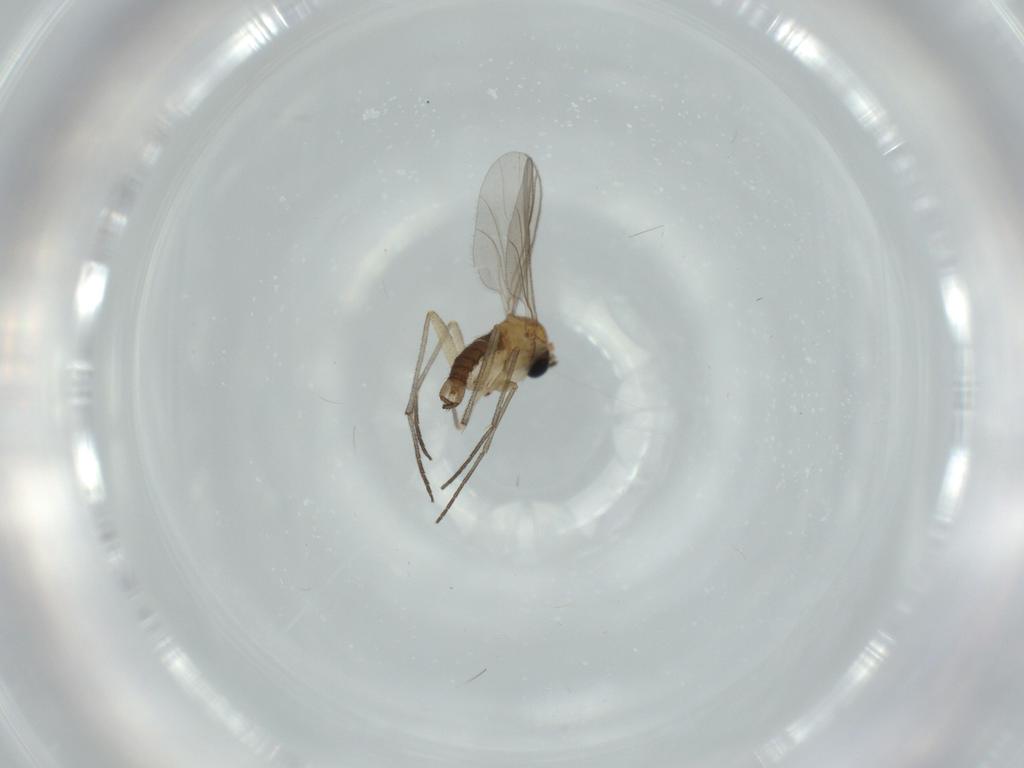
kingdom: Animalia
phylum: Arthropoda
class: Insecta
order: Diptera
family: Sciaridae
